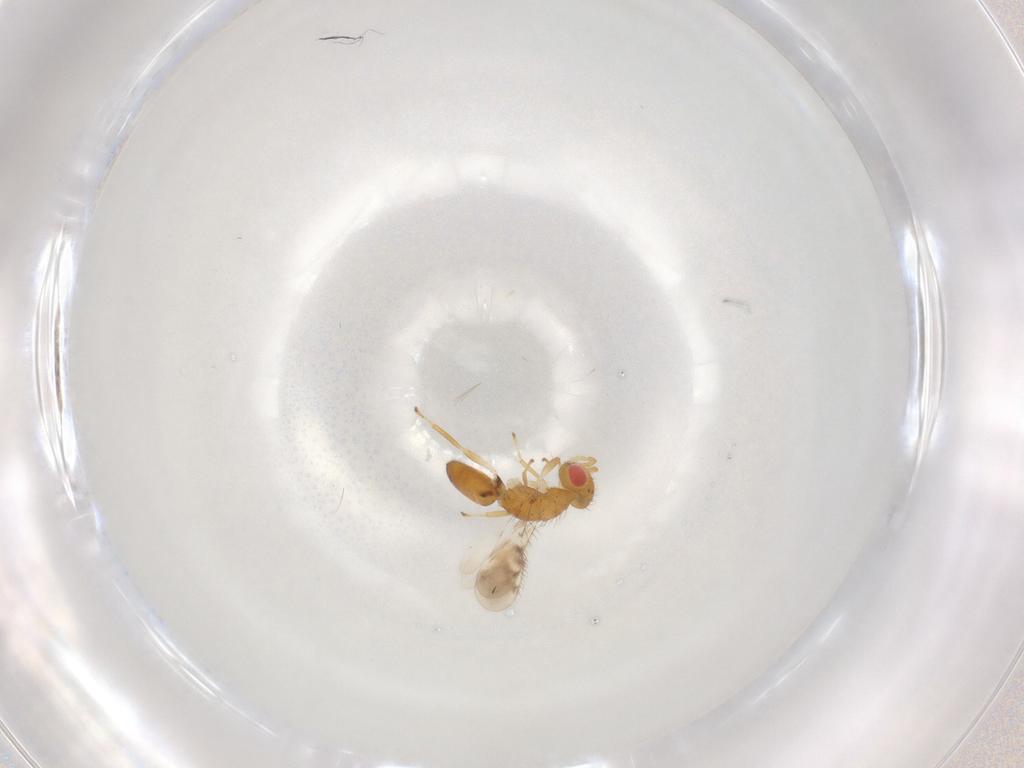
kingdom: Animalia
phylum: Arthropoda
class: Insecta
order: Hymenoptera
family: Eulophidae
